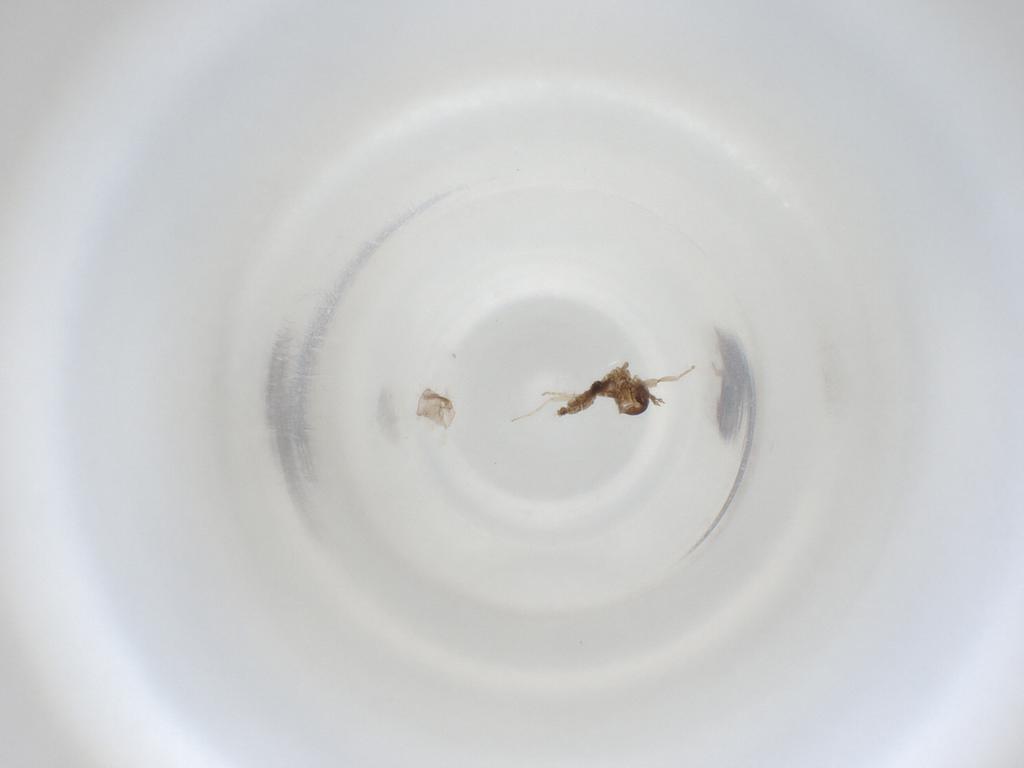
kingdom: Animalia
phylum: Arthropoda
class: Insecta
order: Diptera
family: Cecidomyiidae
